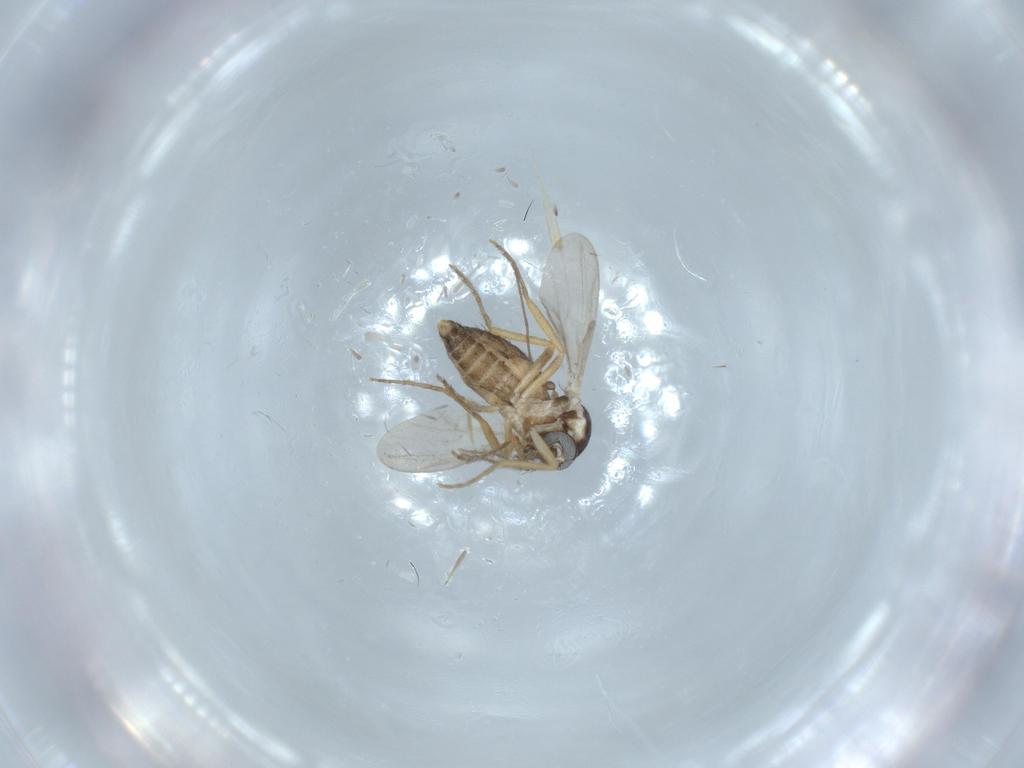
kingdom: Animalia
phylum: Arthropoda
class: Insecta
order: Diptera
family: Ceratopogonidae
